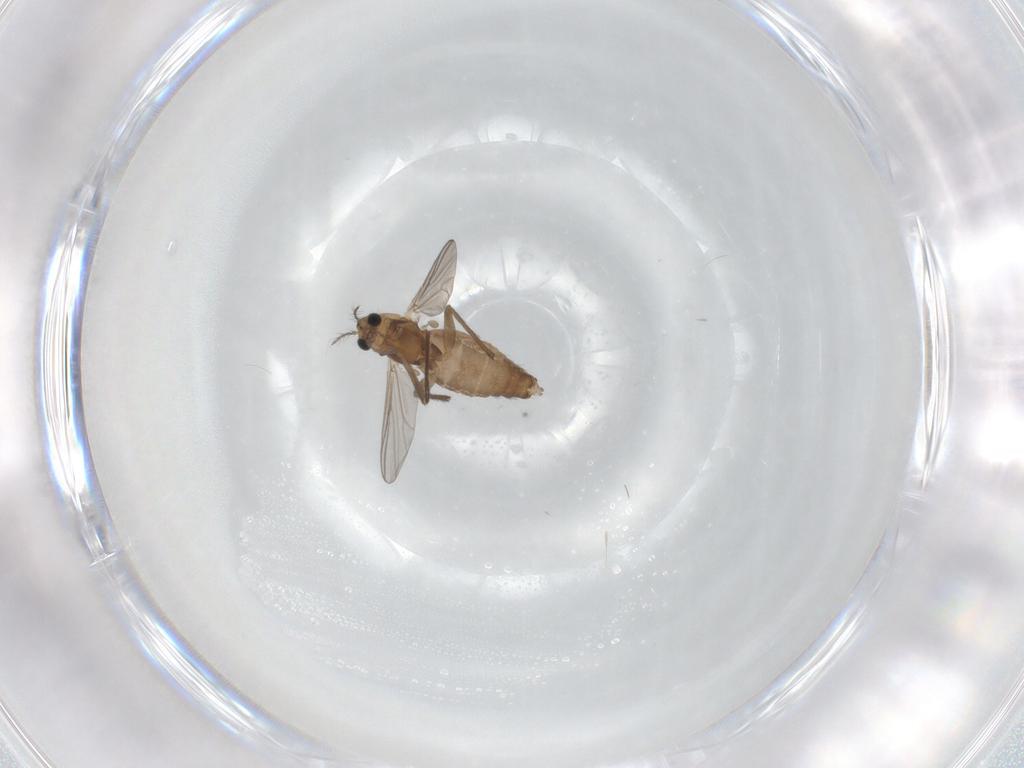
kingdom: Animalia
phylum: Arthropoda
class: Insecta
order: Diptera
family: Chironomidae
